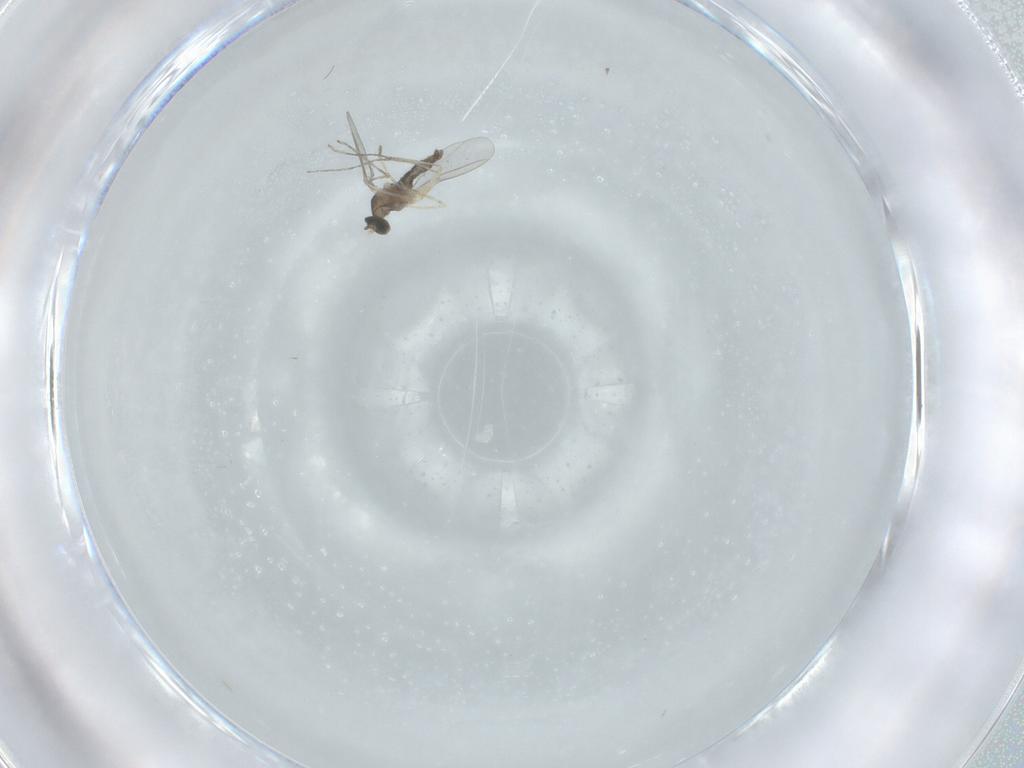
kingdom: Animalia
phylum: Arthropoda
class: Insecta
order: Diptera
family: Cecidomyiidae
